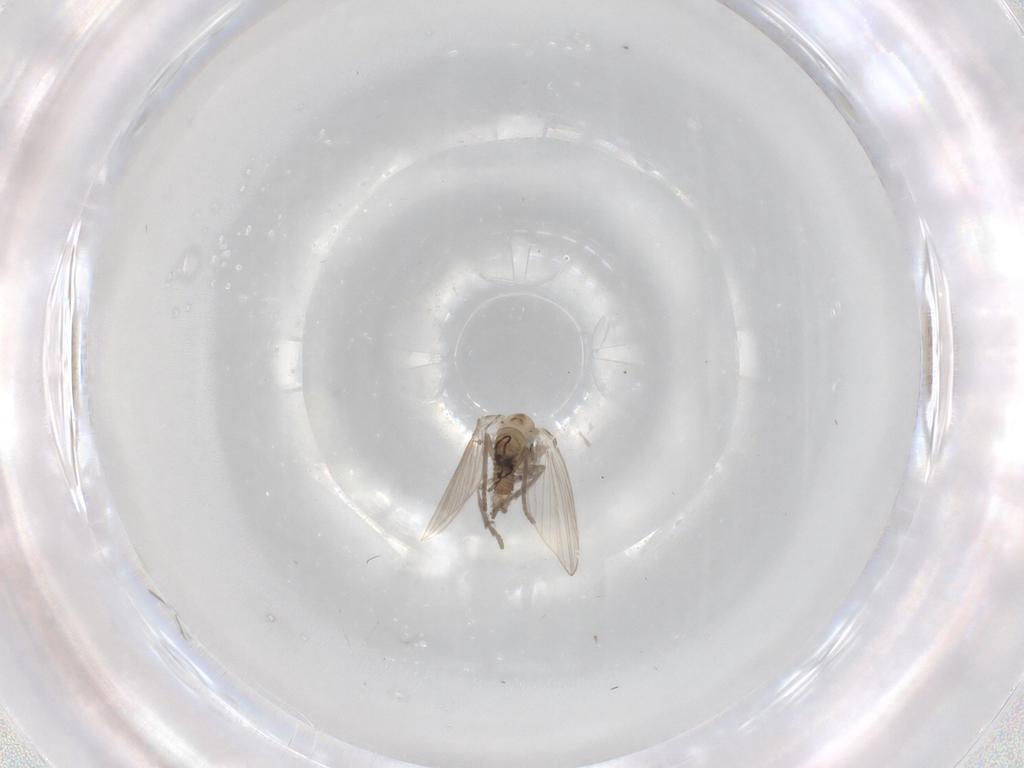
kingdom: Animalia
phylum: Arthropoda
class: Insecta
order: Diptera
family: Psychodidae
